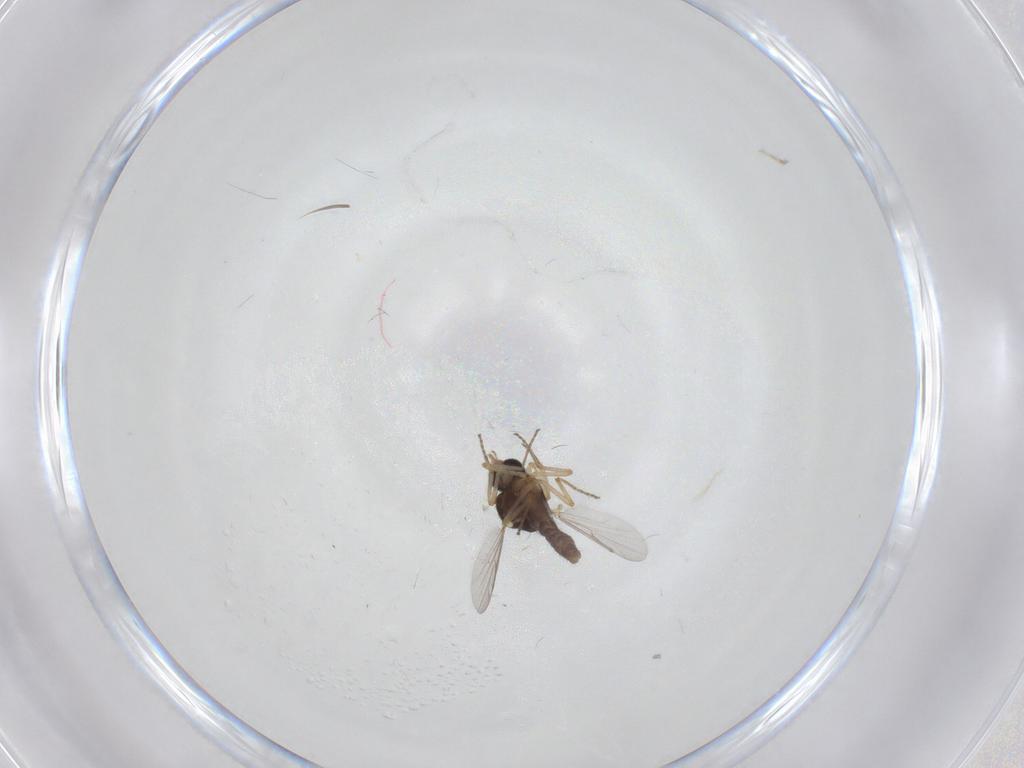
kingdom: Animalia
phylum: Arthropoda
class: Insecta
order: Diptera
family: Ceratopogonidae
